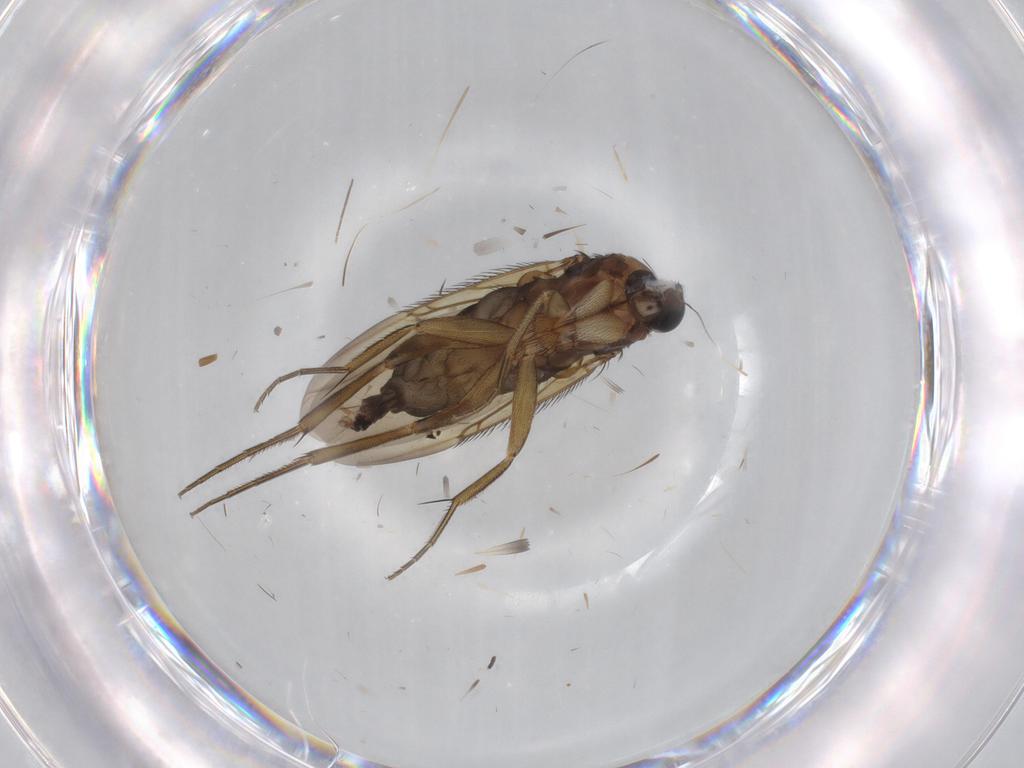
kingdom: Animalia
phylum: Arthropoda
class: Insecta
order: Diptera
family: Phoridae
